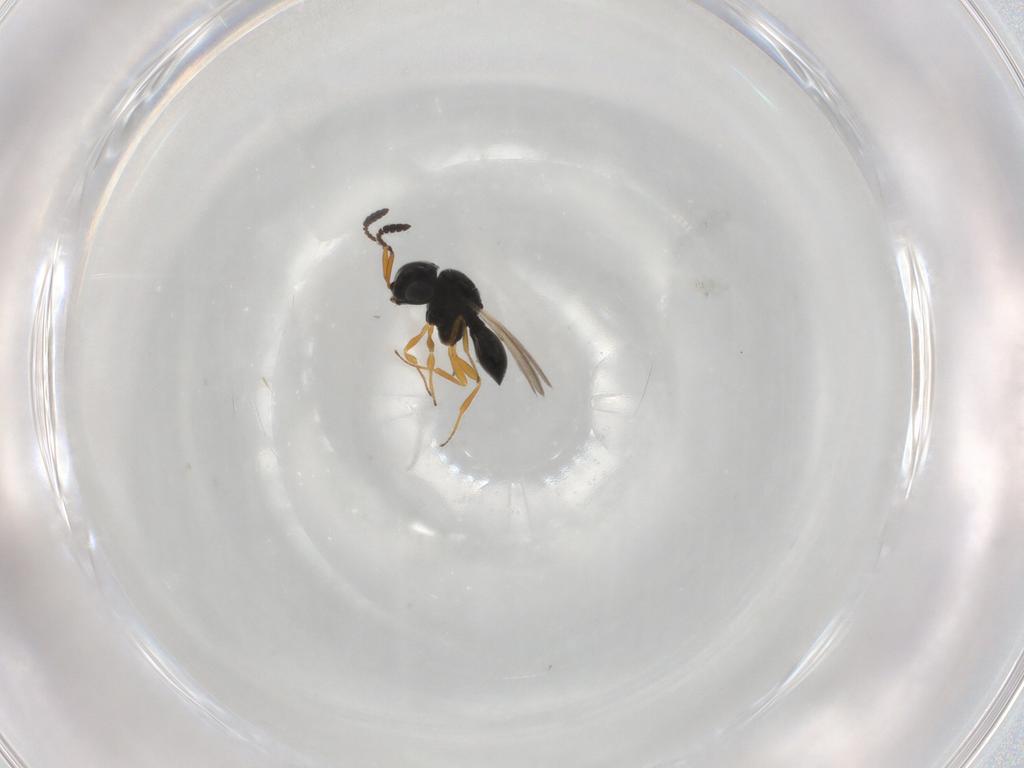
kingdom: Animalia
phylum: Arthropoda
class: Insecta
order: Hymenoptera
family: Scelionidae
